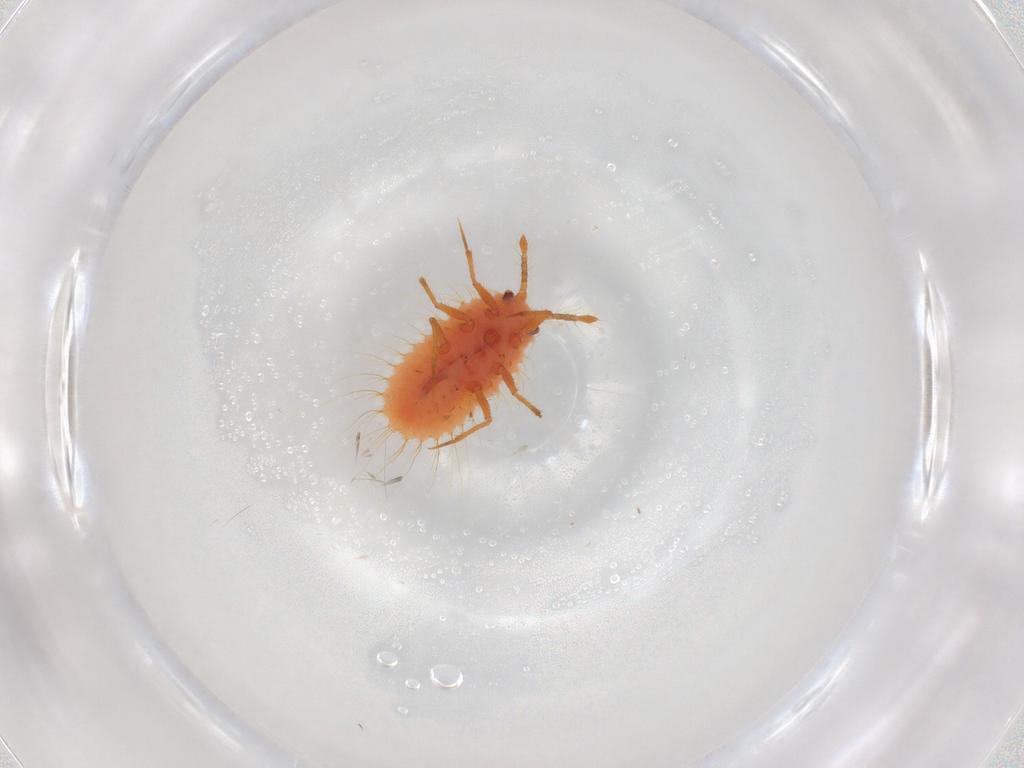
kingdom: Animalia
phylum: Arthropoda
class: Insecta
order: Hemiptera
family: Coccoidea_incertae_sedis
